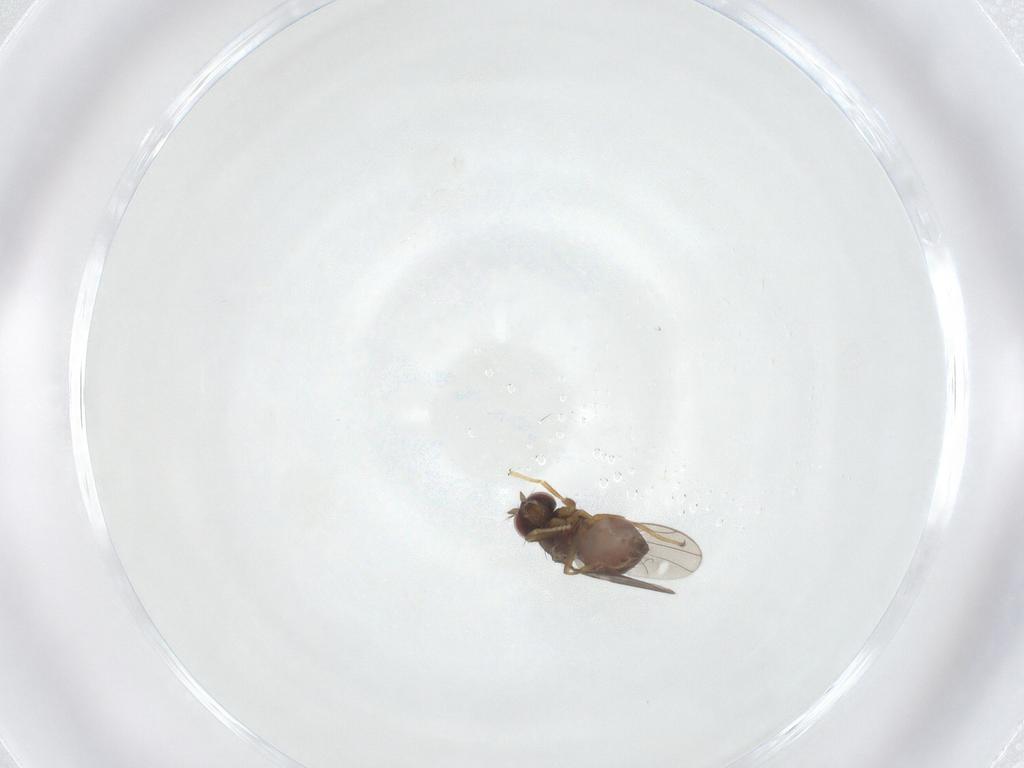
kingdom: Animalia
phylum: Arthropoda
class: Insecta
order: Diptera
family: Ephydridae
